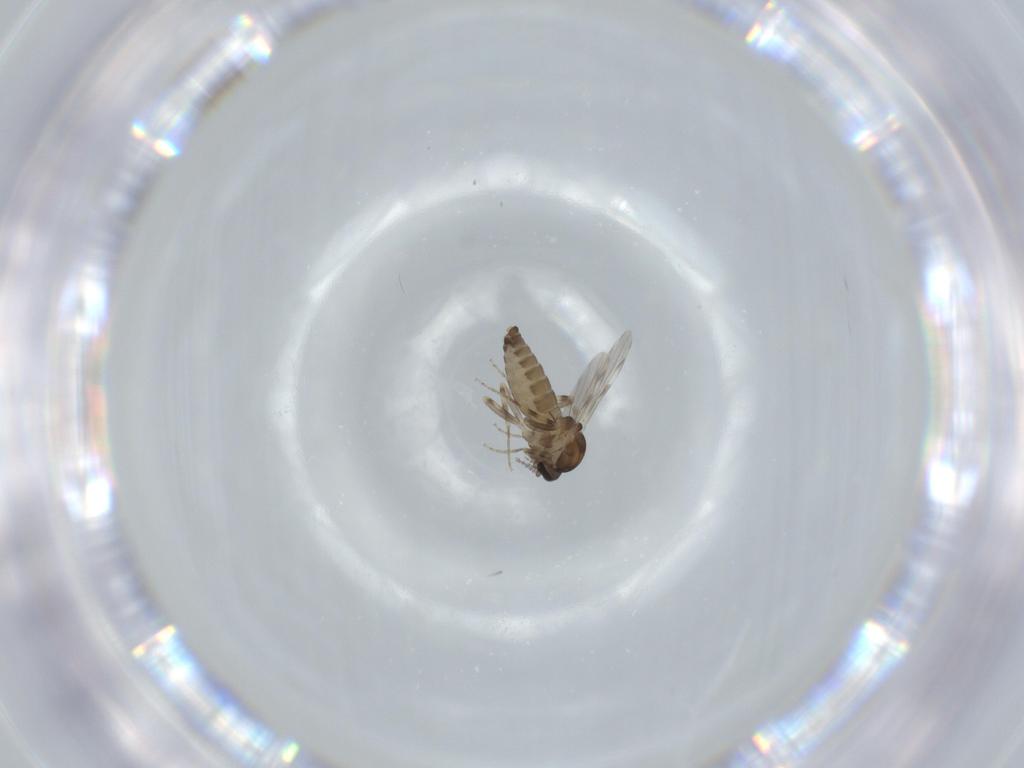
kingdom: Animalia
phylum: Arthropoda
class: Insecta
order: Diptera
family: Ceratopogonidae
